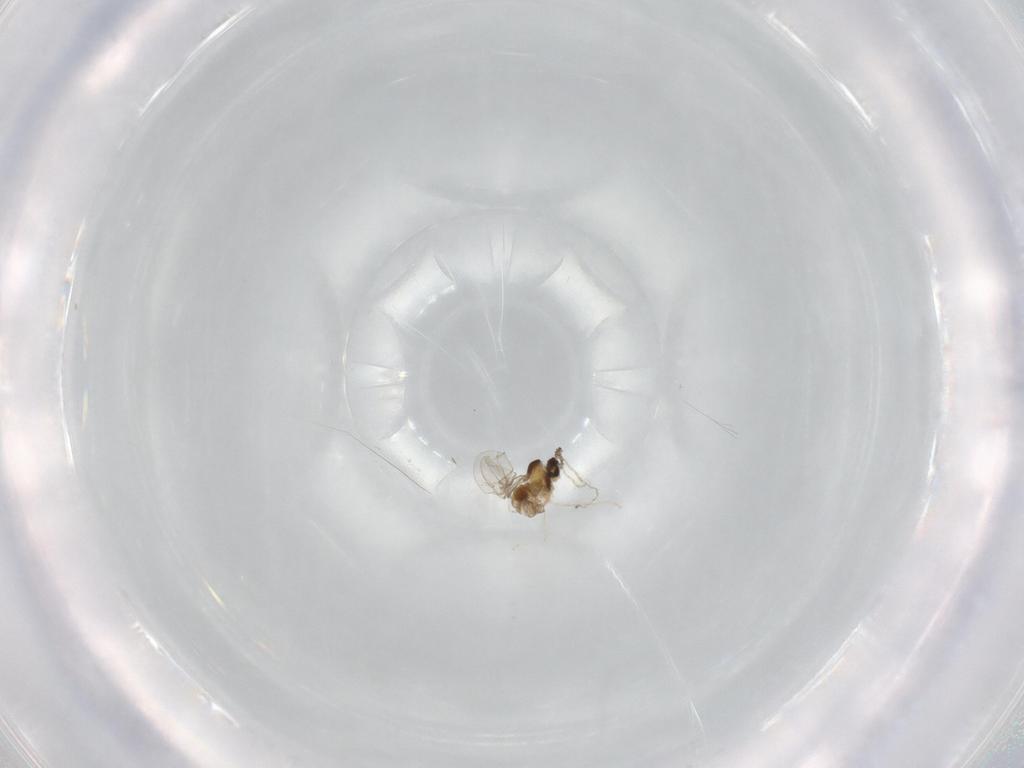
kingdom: Animalia
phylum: Arthropoda
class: Insecta
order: Diptera
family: Cecidomyiidae
